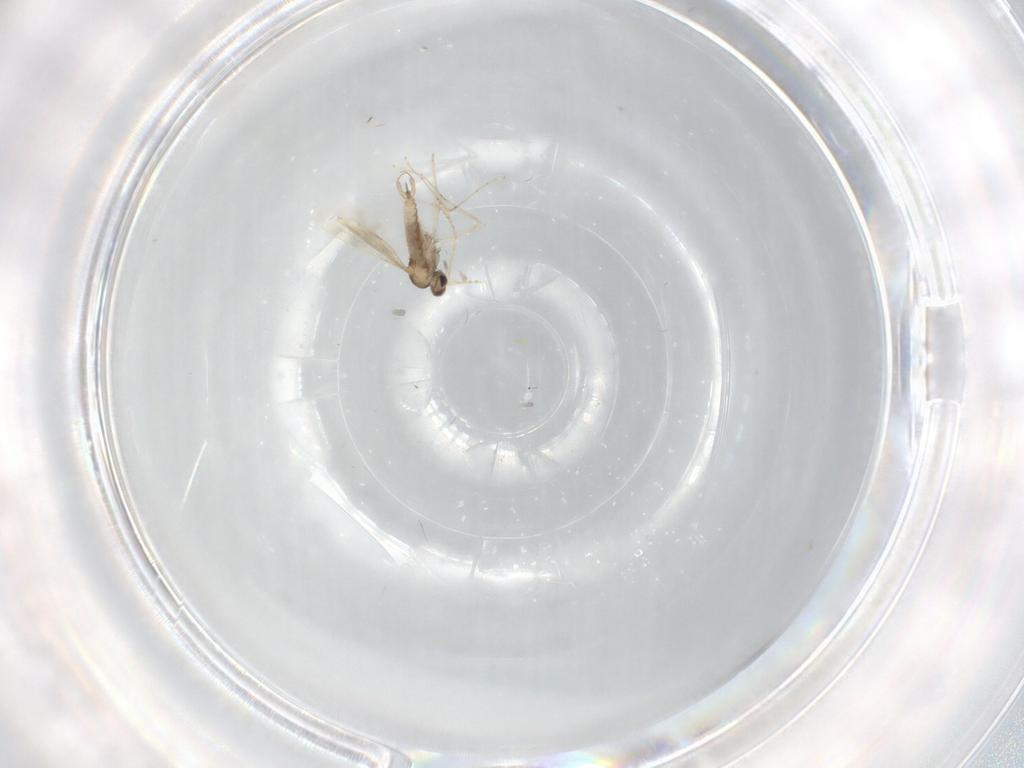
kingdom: Animalia
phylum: Arthropoda
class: Insecta
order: Diptera
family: Cecidomyiidae
